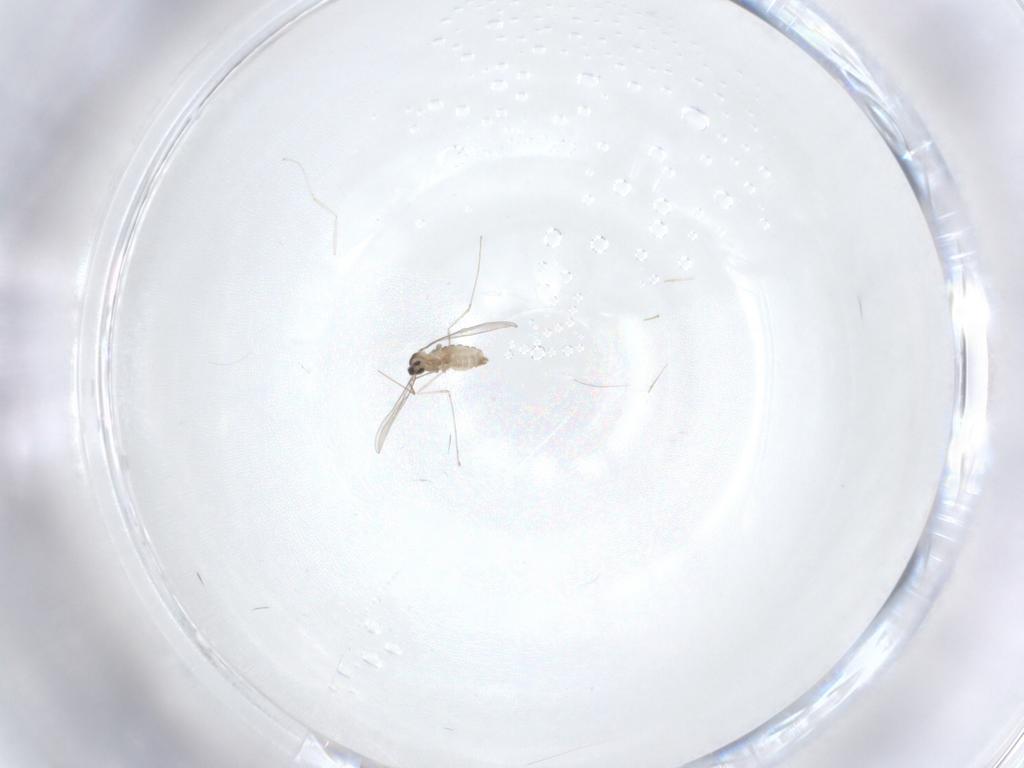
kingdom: Animalia
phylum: Arthropoda
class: Insecta
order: Diptera
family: Cecidomyiidae
